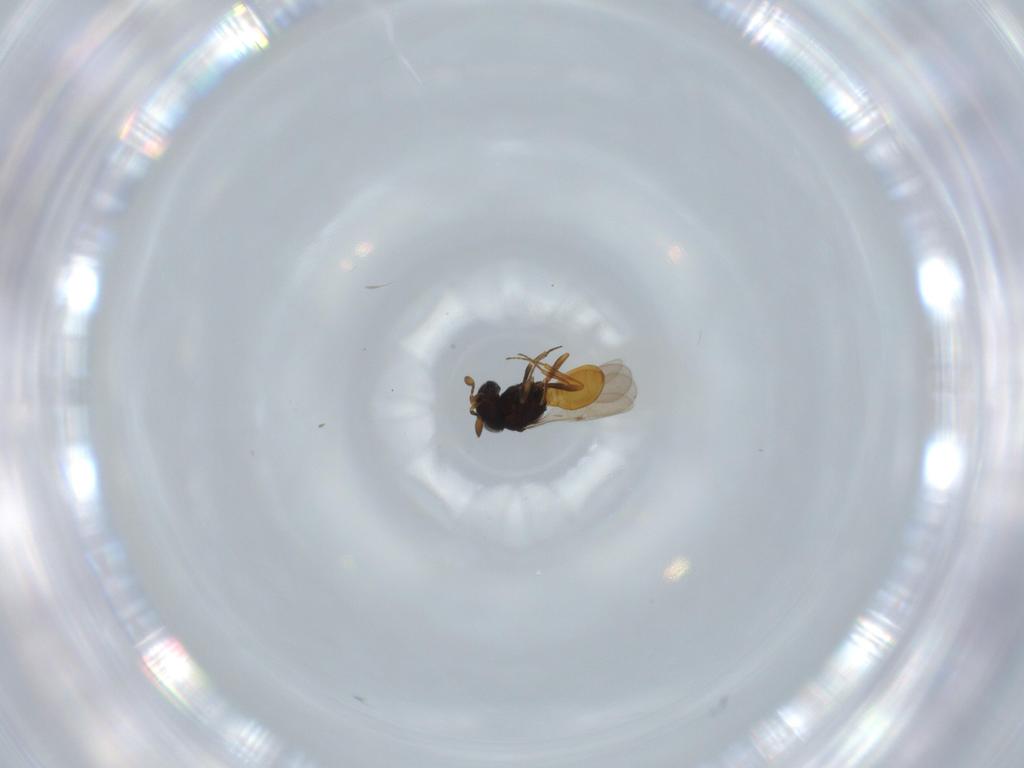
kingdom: Animalia
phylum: Arthropoda
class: Insecta
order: Hymenoptera
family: Scelionidae
